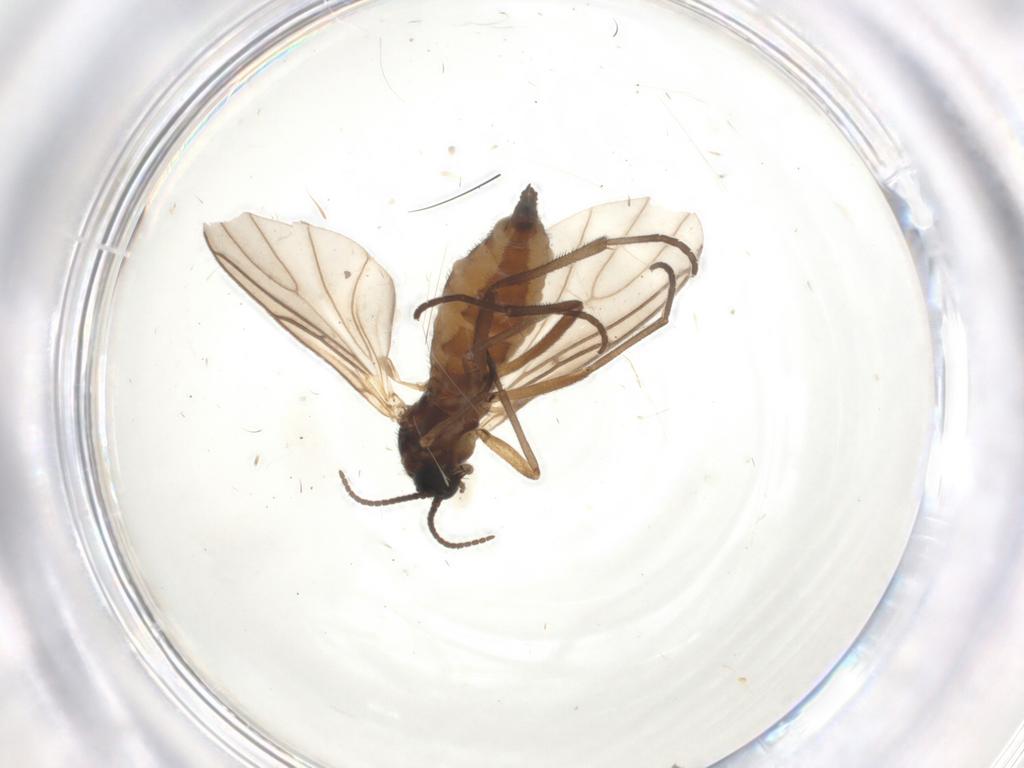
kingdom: Animalia
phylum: Arthropoda
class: Insecta
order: Diptera
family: Sciaridae
